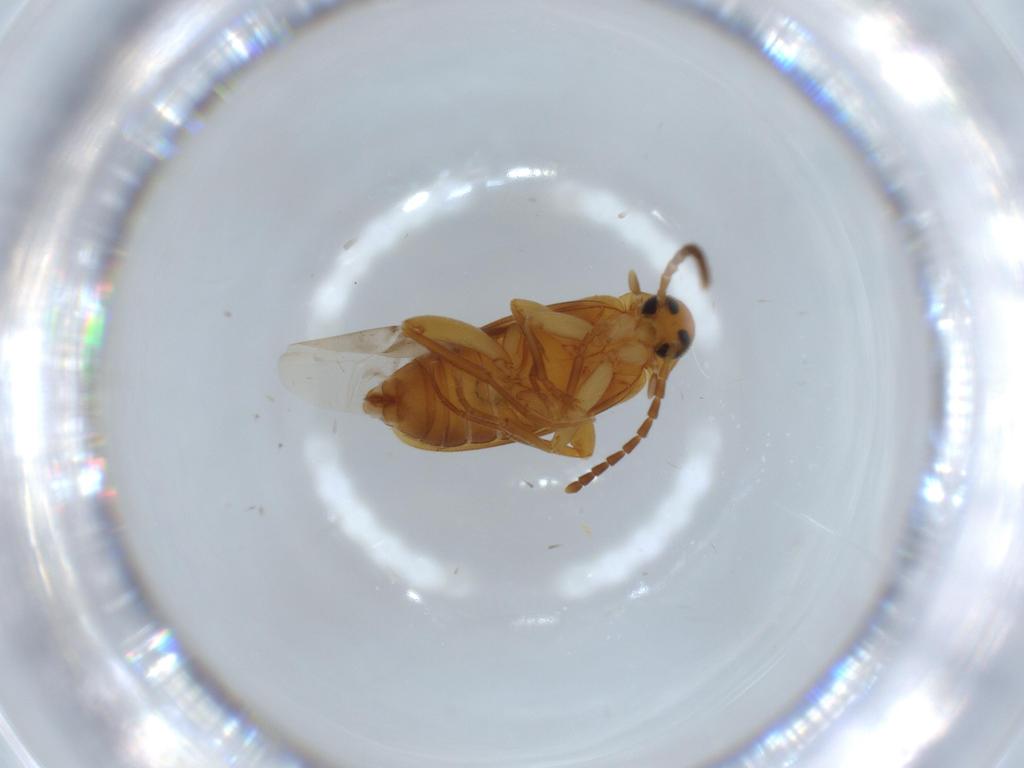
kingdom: Animalia
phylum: Arthropoda
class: Insecta
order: Coleoptera
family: Scraptiidae
